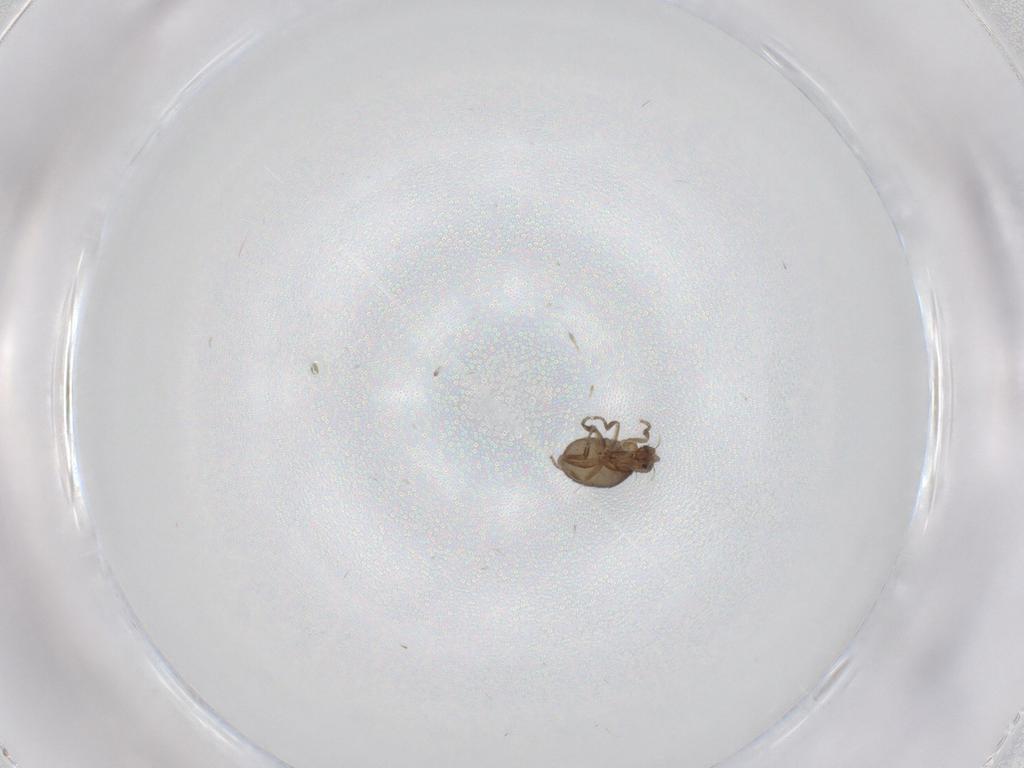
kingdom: Animalia
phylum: Arthropoda
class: Insecta
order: Diptera
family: Phoridae
